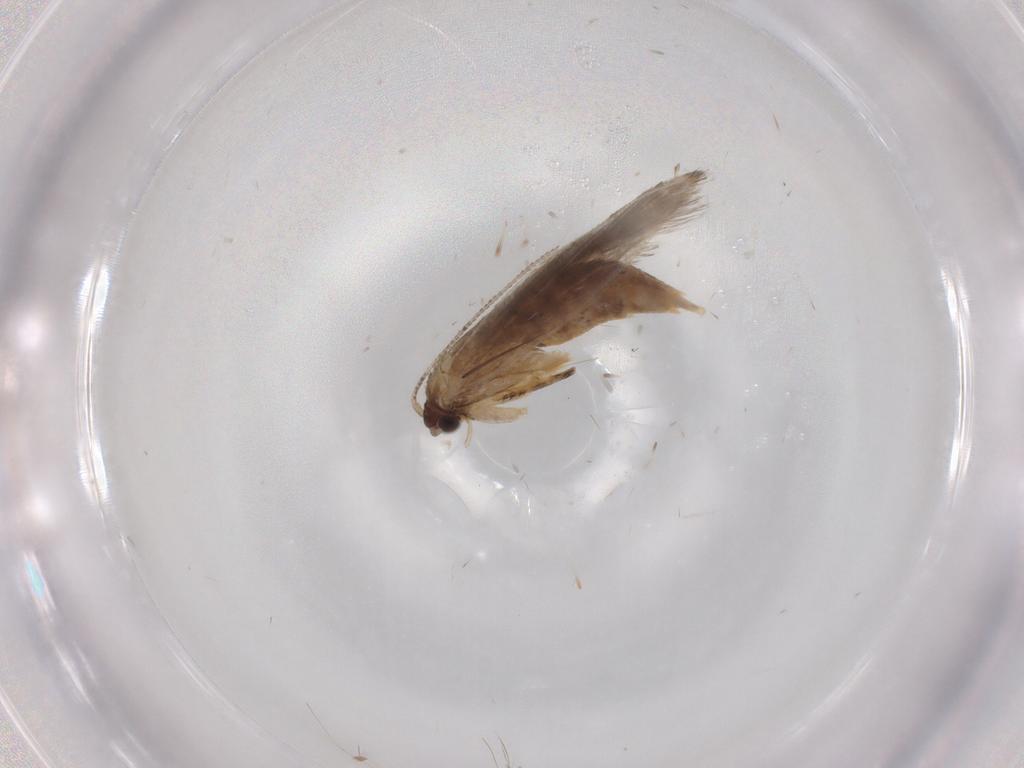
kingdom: Animalia
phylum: Arthropoda
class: Insecta
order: Lepidoptera
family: Tineidae
